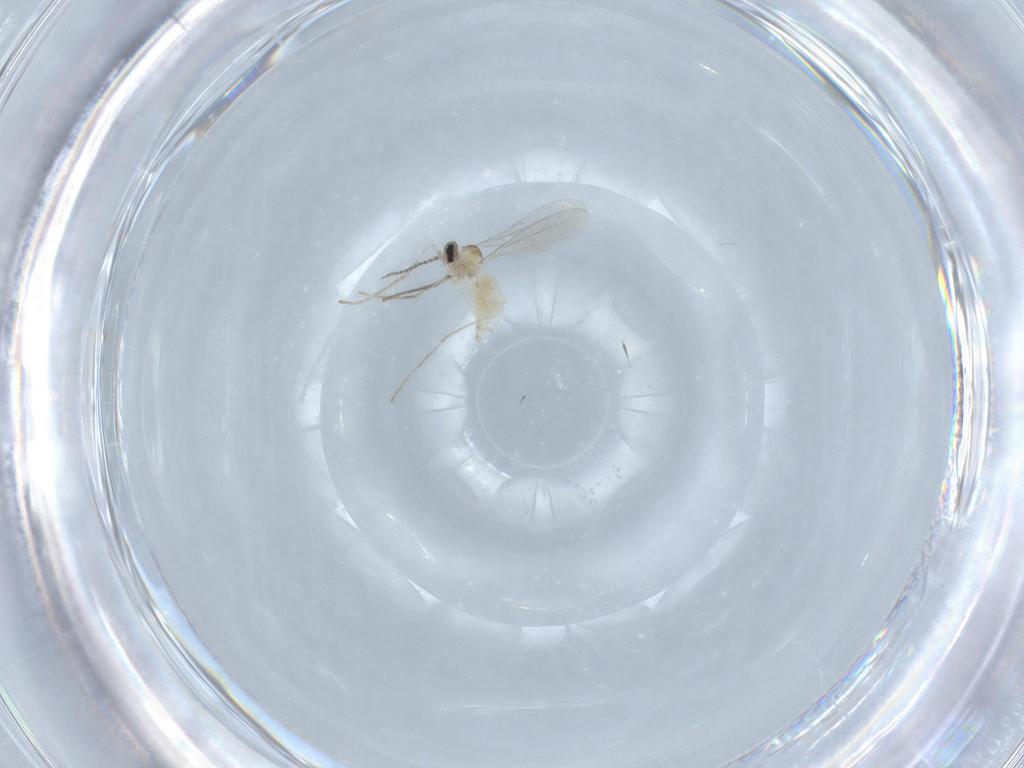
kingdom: Animalia
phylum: Arthropoda
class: Insecta
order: Diptera
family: Cecidomyiidae
